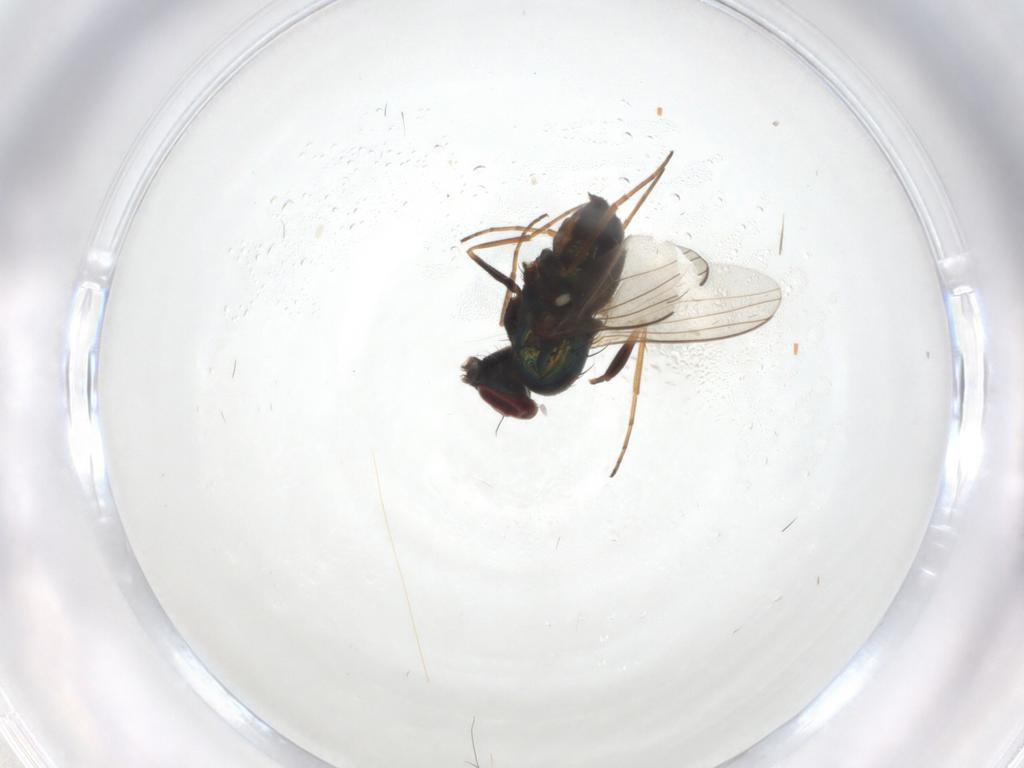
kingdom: Animalia
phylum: Arthropoda
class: Insecta
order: Diptera
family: Dolichopodidae
